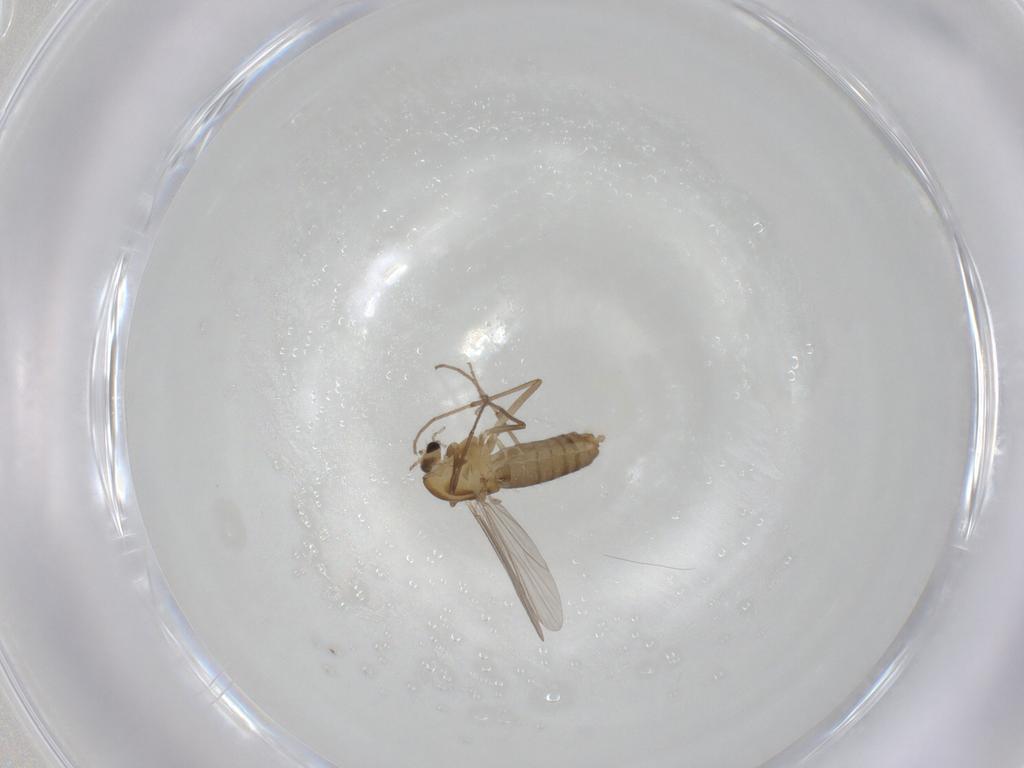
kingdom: Animalia
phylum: Arthropoda
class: Insecta
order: Diptera
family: Chironomidae
